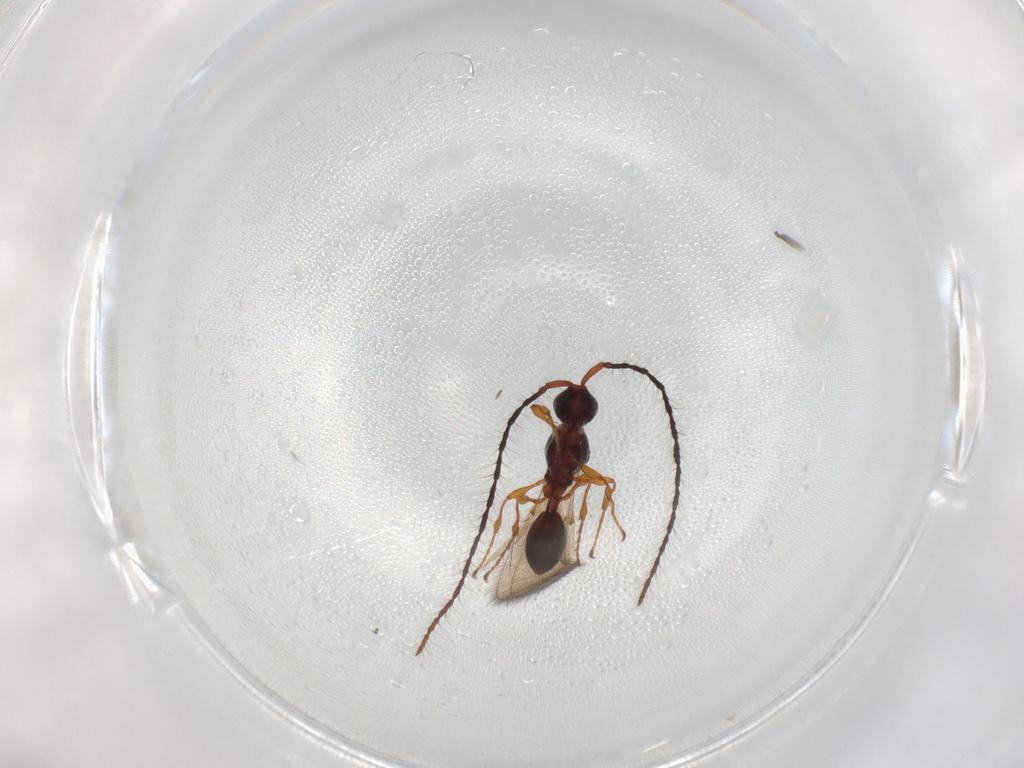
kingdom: Animalia
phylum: Arthropoda
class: Insecta
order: Hymenoptera
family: Diapriidae
